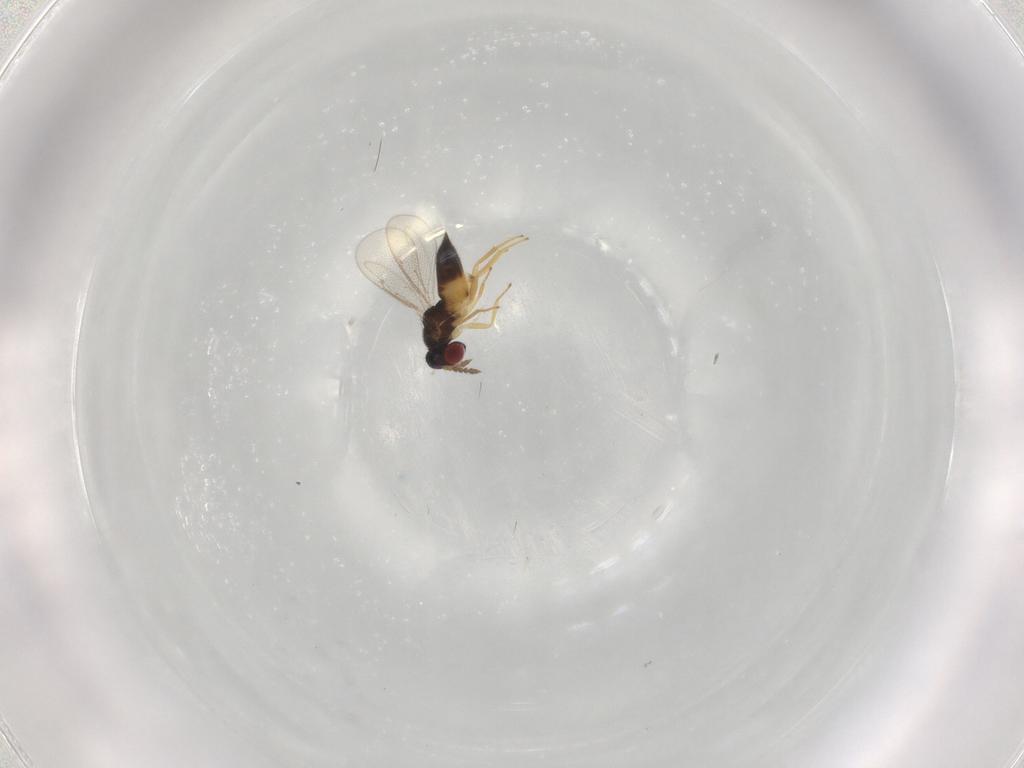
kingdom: Animalia
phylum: Arthropoda
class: Insecta
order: Hymenoptera
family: Eulophidae
